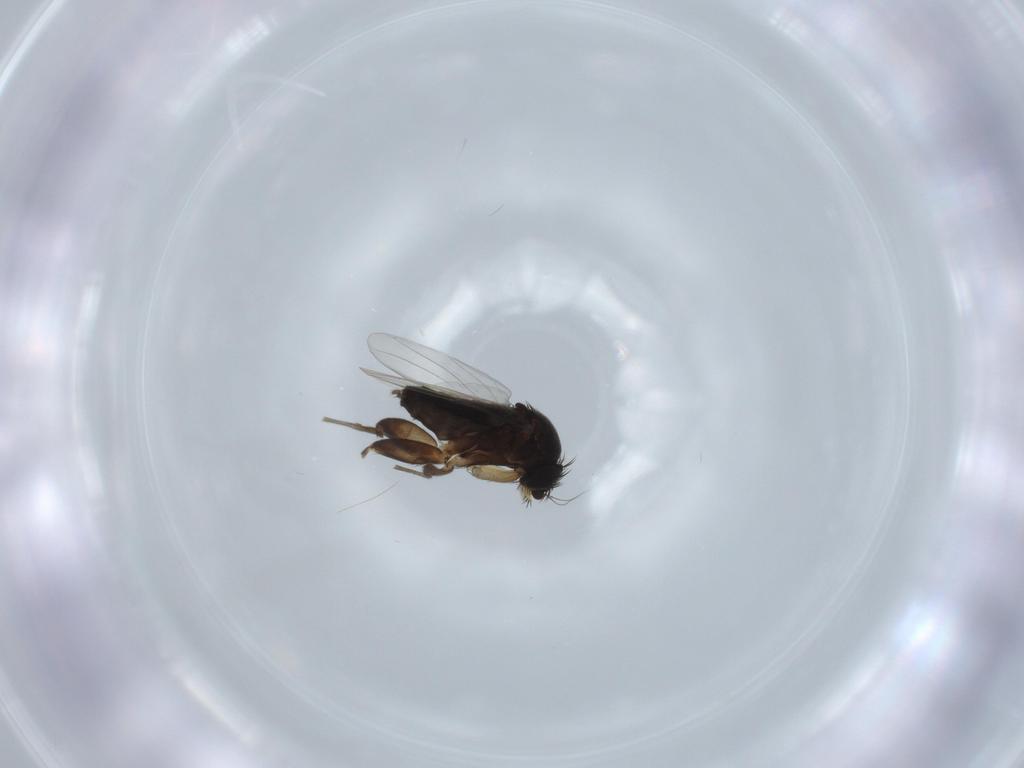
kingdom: Animalia
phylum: Arthropoda
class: Insecta
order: Diptera
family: Phoridae
